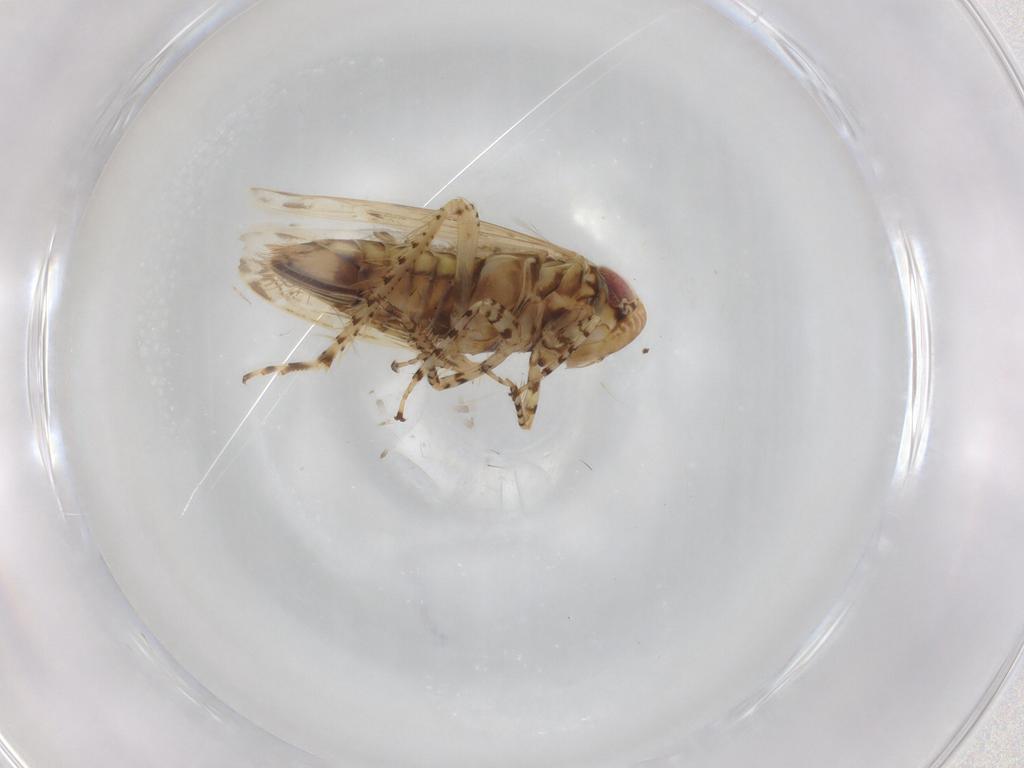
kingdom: Animalia
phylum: Arthropoda
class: Insecta
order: Hemiptera
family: Cicadellidae
